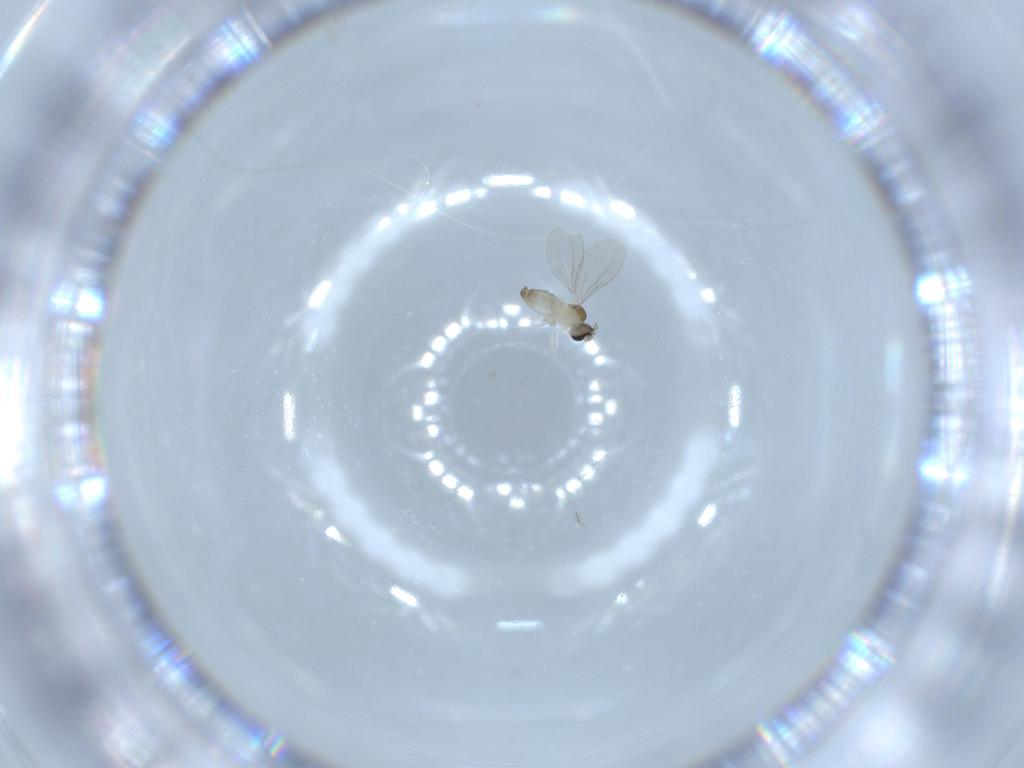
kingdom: Animalia
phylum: Arthropoda
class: Insecta
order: Diptera
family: Cecidomyiidae
